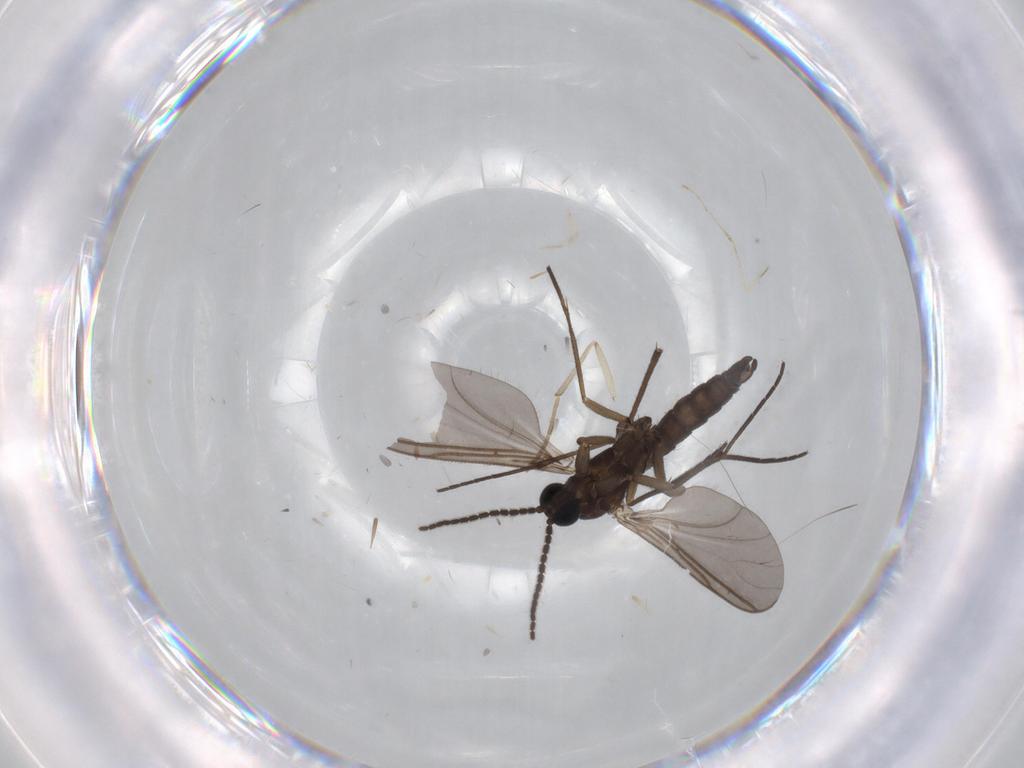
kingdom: Animalia
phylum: Arthropoda
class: Insecta
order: Diptera
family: Sciaridae
